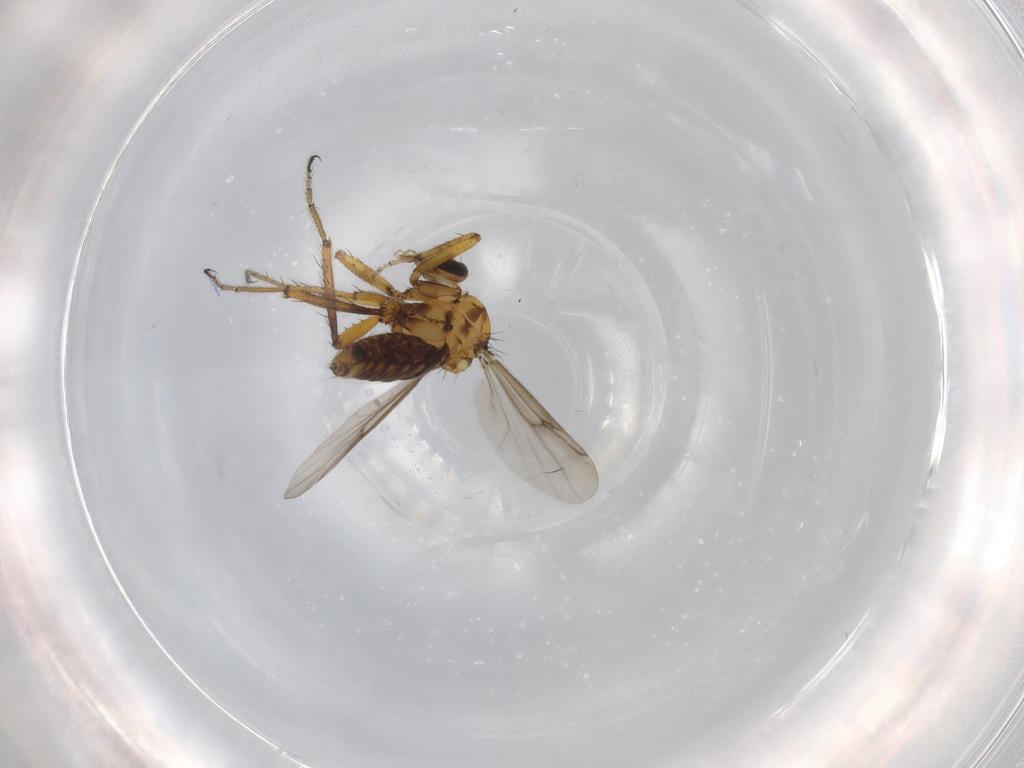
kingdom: Animalia
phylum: Arthropoda
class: Insecta
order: Diptera
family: Ceratopogonidae
